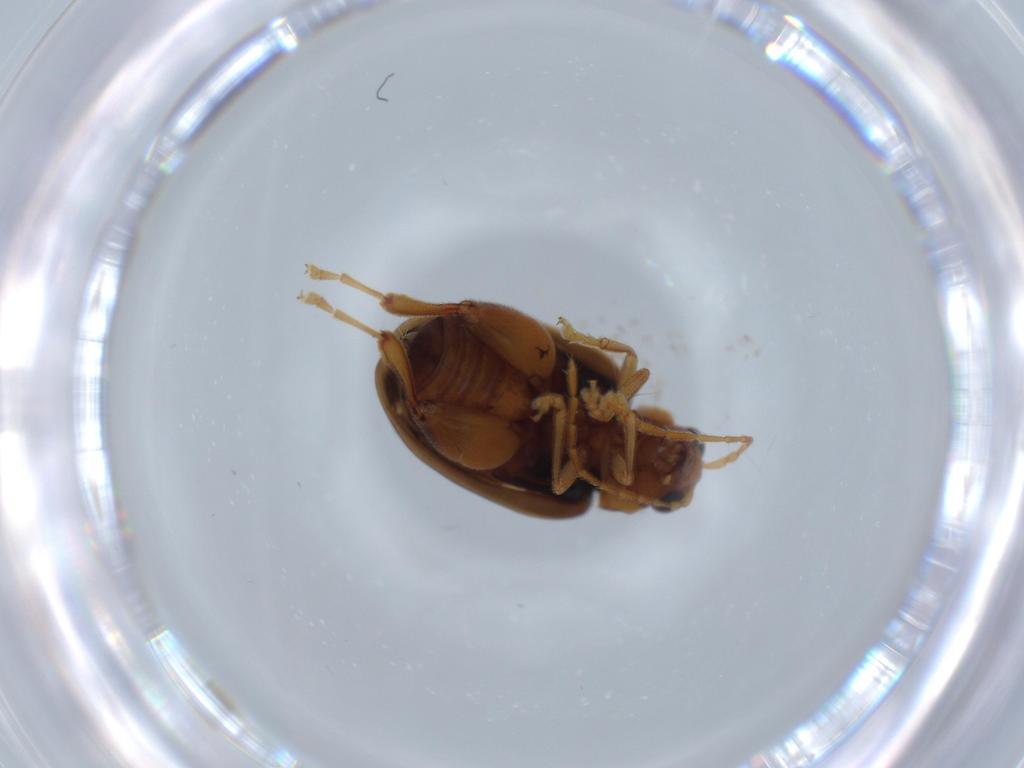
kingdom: Animalia
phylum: Arthropoda
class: Insecta
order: Coleoptera
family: Chrysomelidae
